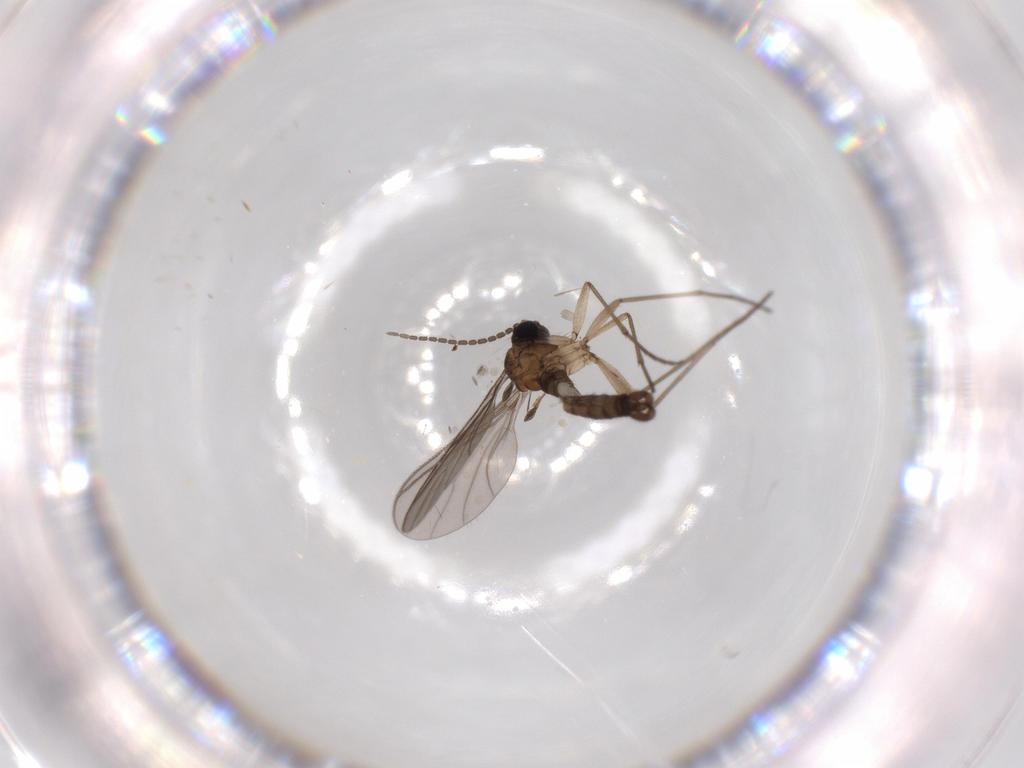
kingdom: Animalia
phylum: Arthropoda
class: Insecta
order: Diptera
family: Sciaridae
